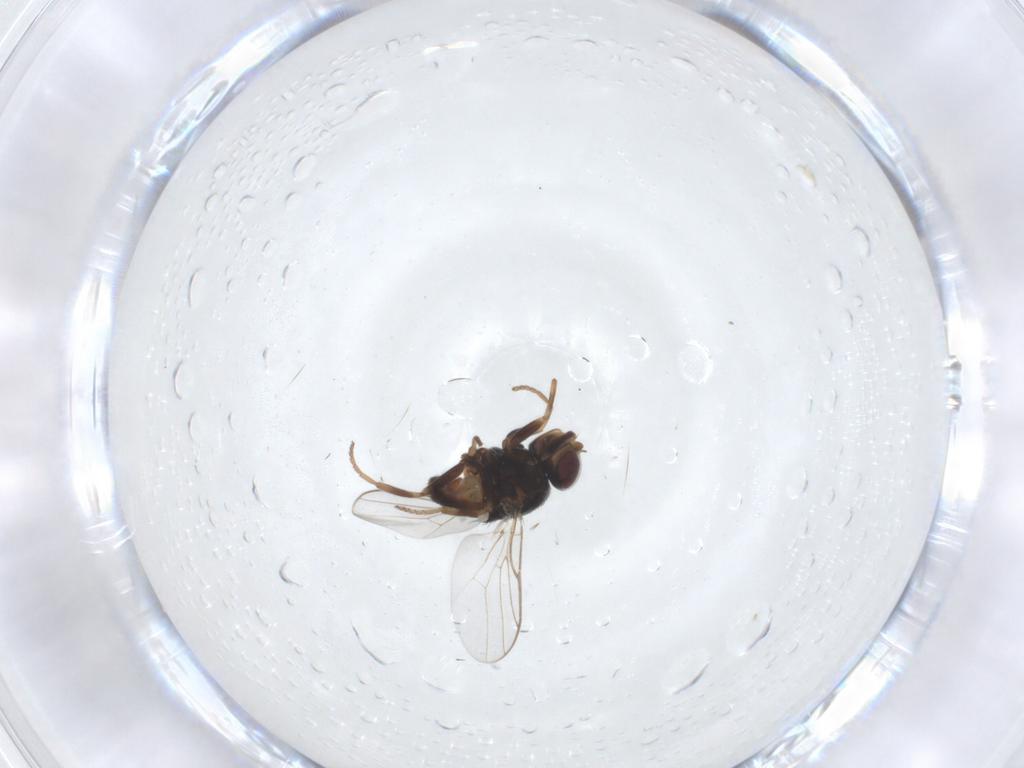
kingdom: Animalia
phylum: Arthropoda
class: Insecta
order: Diptera
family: Chloropidae
